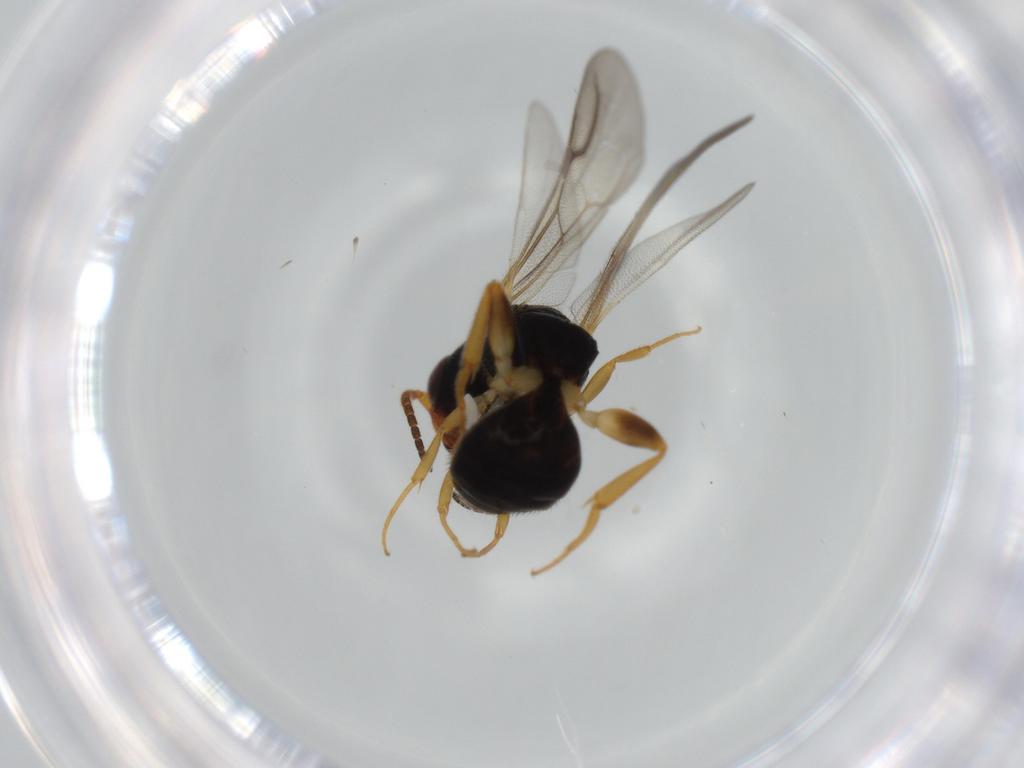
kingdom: Animalia
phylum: Arthropoda
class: Insecta
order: Hymenoptera
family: Bethylidae
